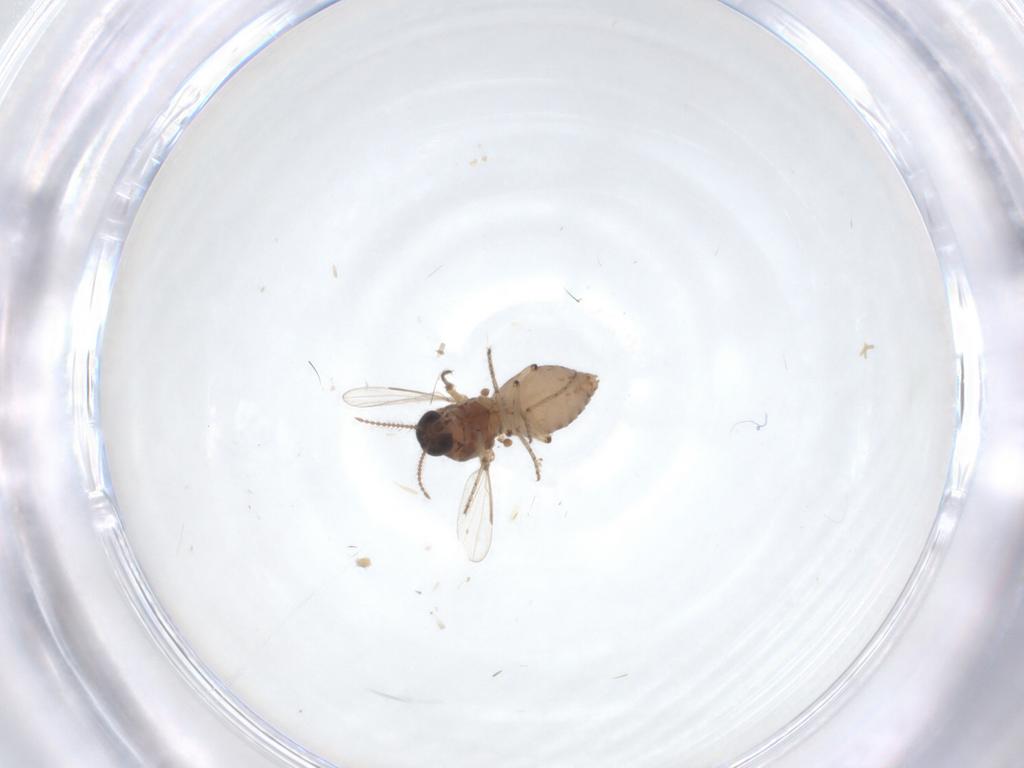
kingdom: Animalia
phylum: Arthropoda
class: Insecta
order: Diptera
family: Ceratopogonidae
